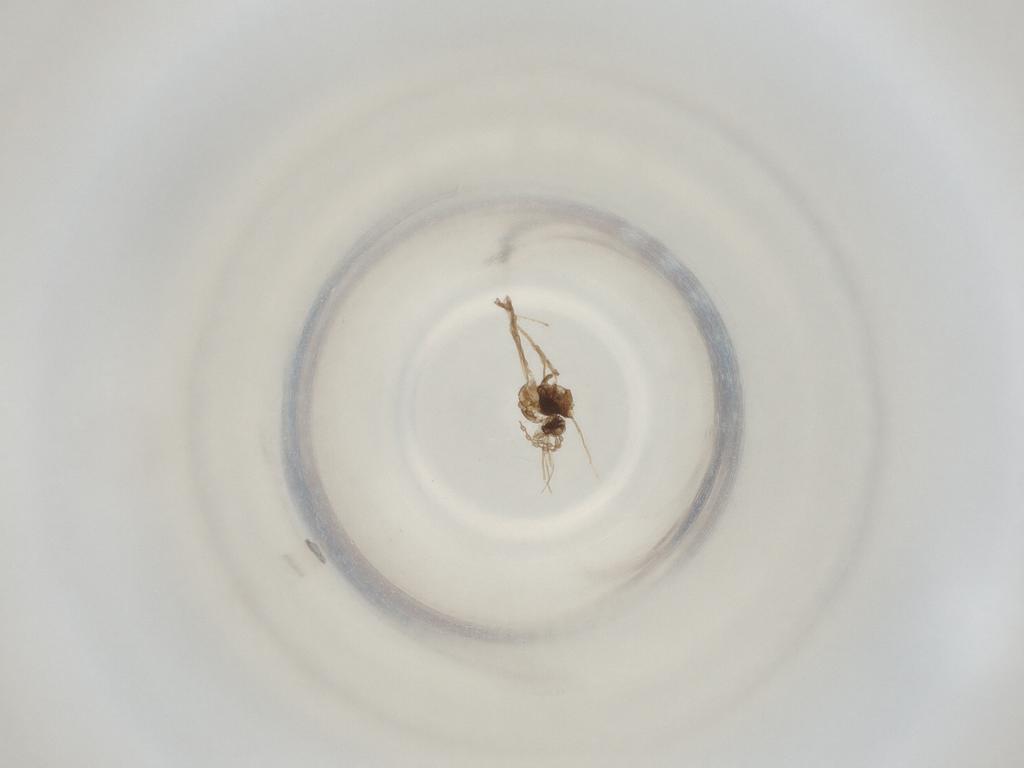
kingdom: Animalia
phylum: Arthropoda
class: Insecta
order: Diptera
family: Cecidomyiidae
